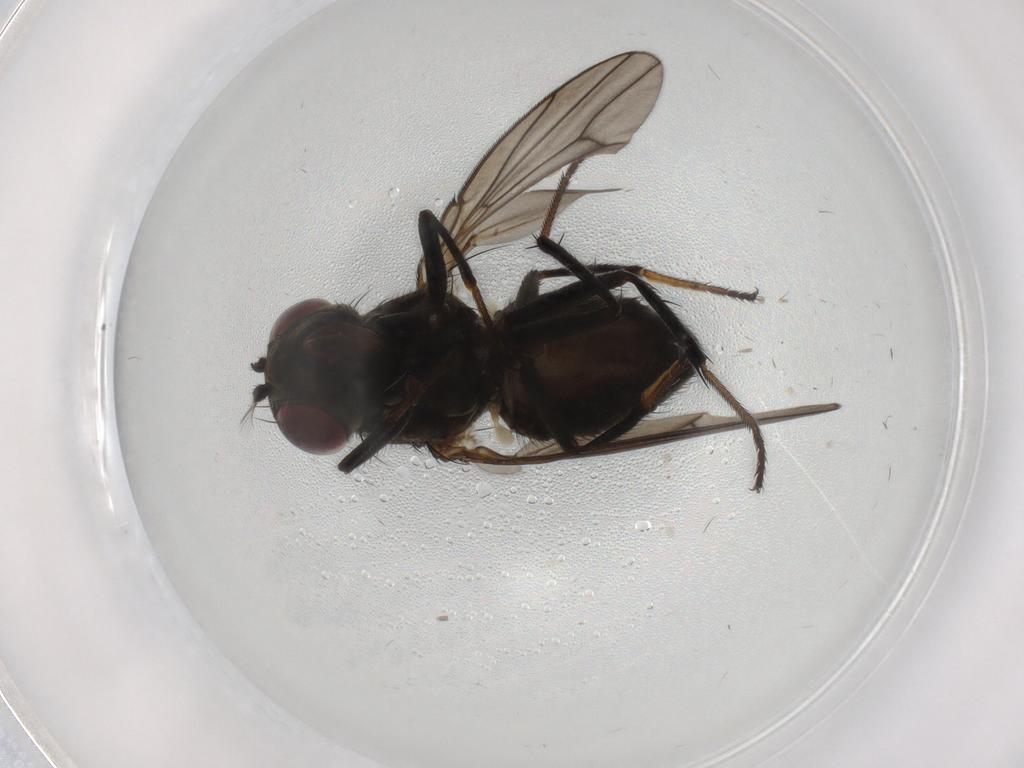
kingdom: Animalia
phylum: Arthropoda
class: Insecta
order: Diptera
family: Ephydridae
